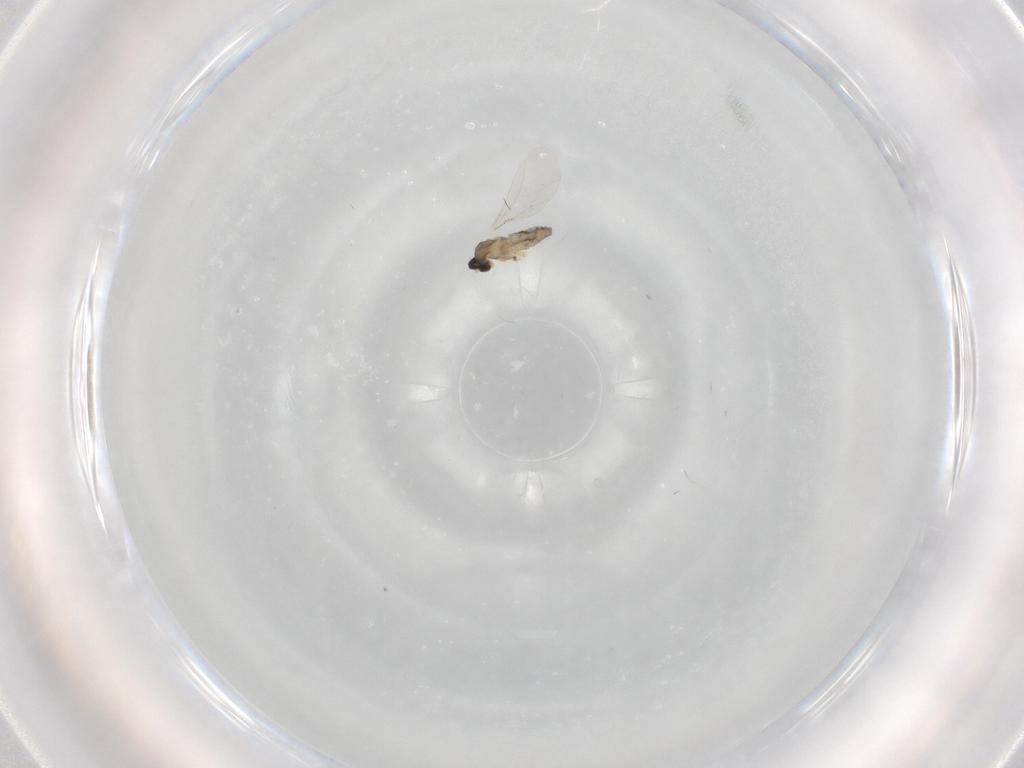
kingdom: Animalia
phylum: Arthropoda
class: Insecta
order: Diptera
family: Cecidomyiidae
